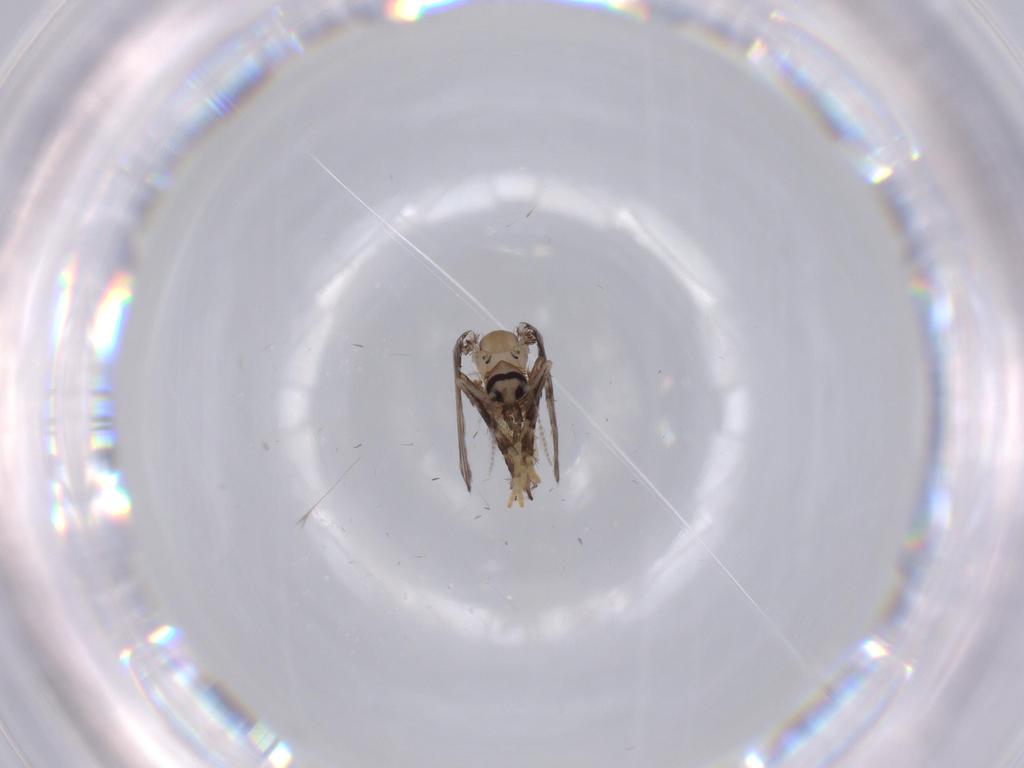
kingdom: Animalia
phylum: Arthropoda
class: Insecta
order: Diptera
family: Sciaridae
